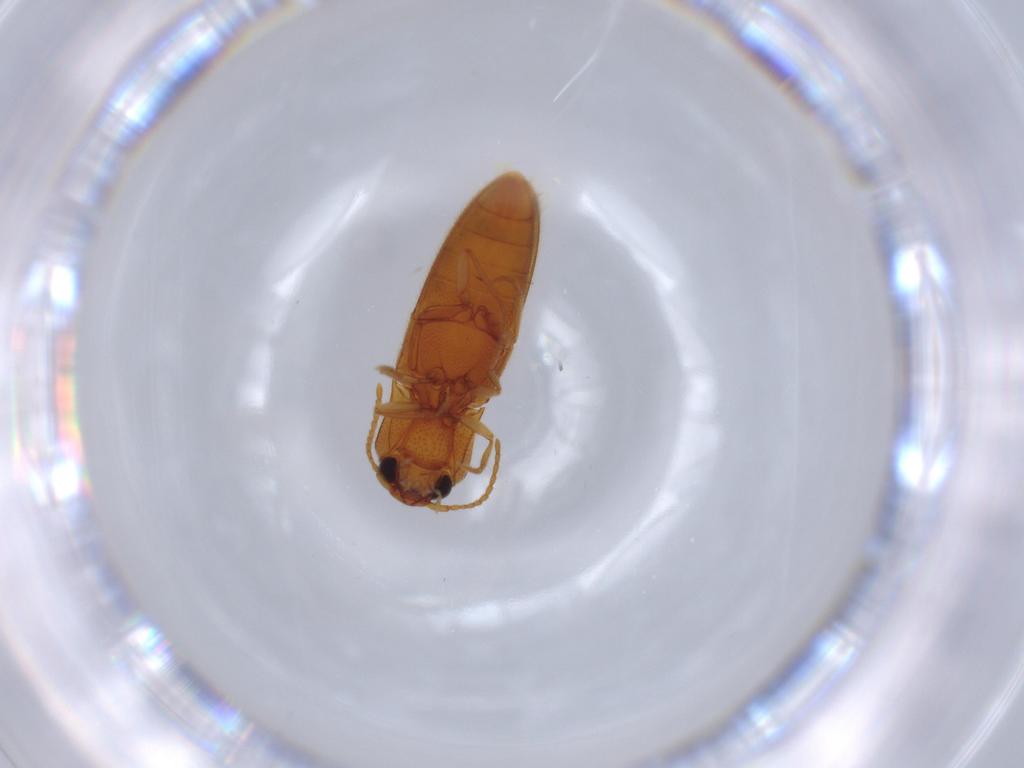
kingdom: Animalia
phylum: Arthropoda
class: Insecta
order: Coleoptera
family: Elateridae
